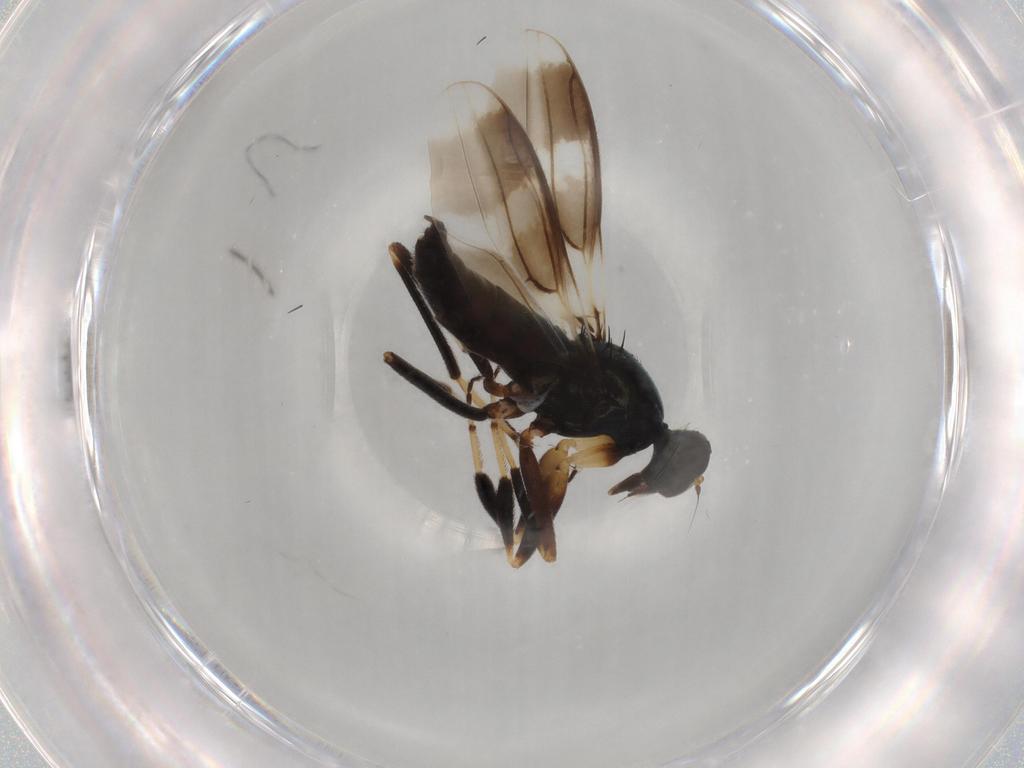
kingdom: Animalia
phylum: Arthropoda
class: Insecta
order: Diptera
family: Hybotidae
